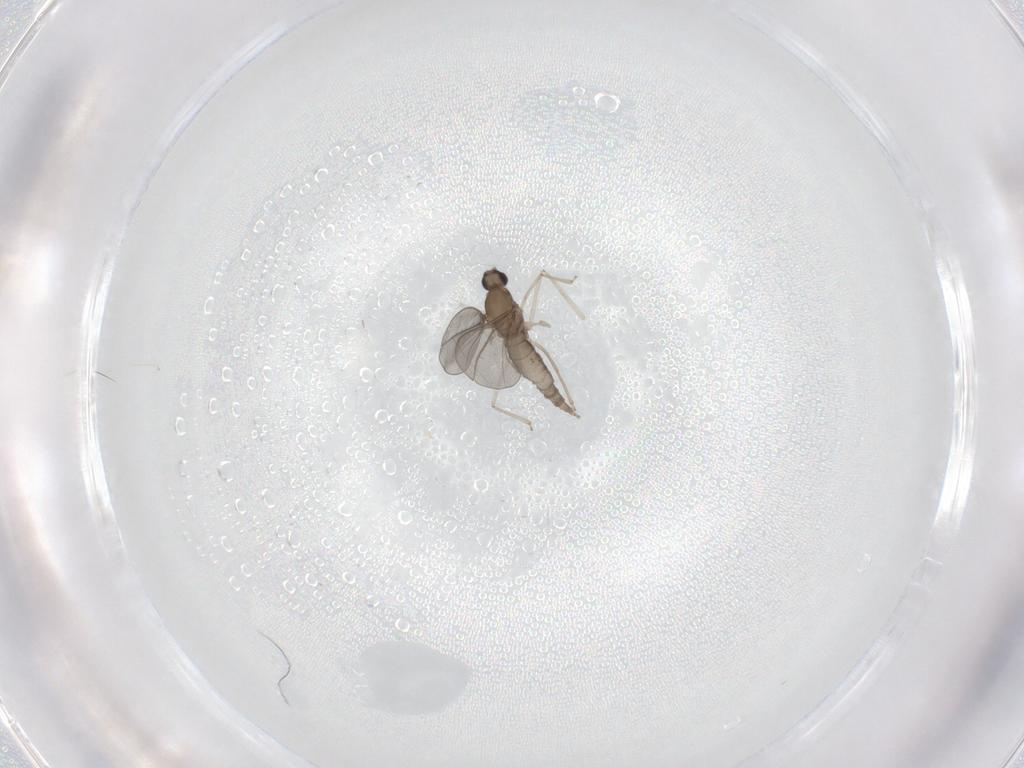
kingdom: Animalia
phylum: Arthropoda
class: Insecta
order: Diptera
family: Cecidomyiidae
